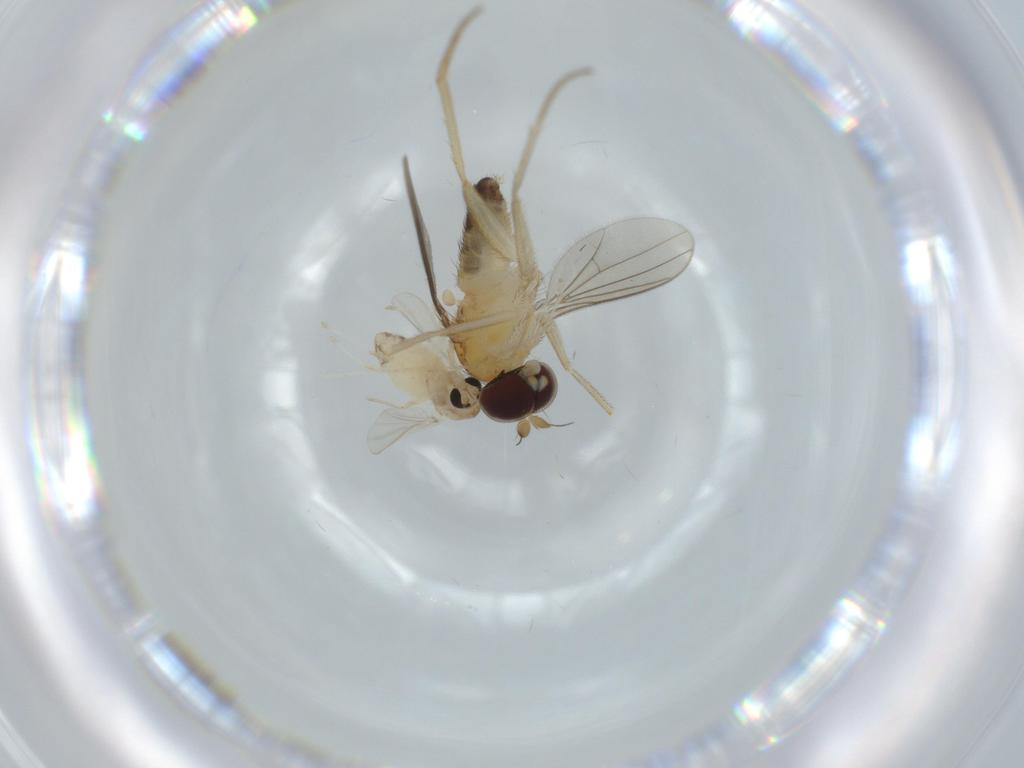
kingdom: Animalia
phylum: Arthropoda
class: Insecta
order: Diptera
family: Dolichopodidae
